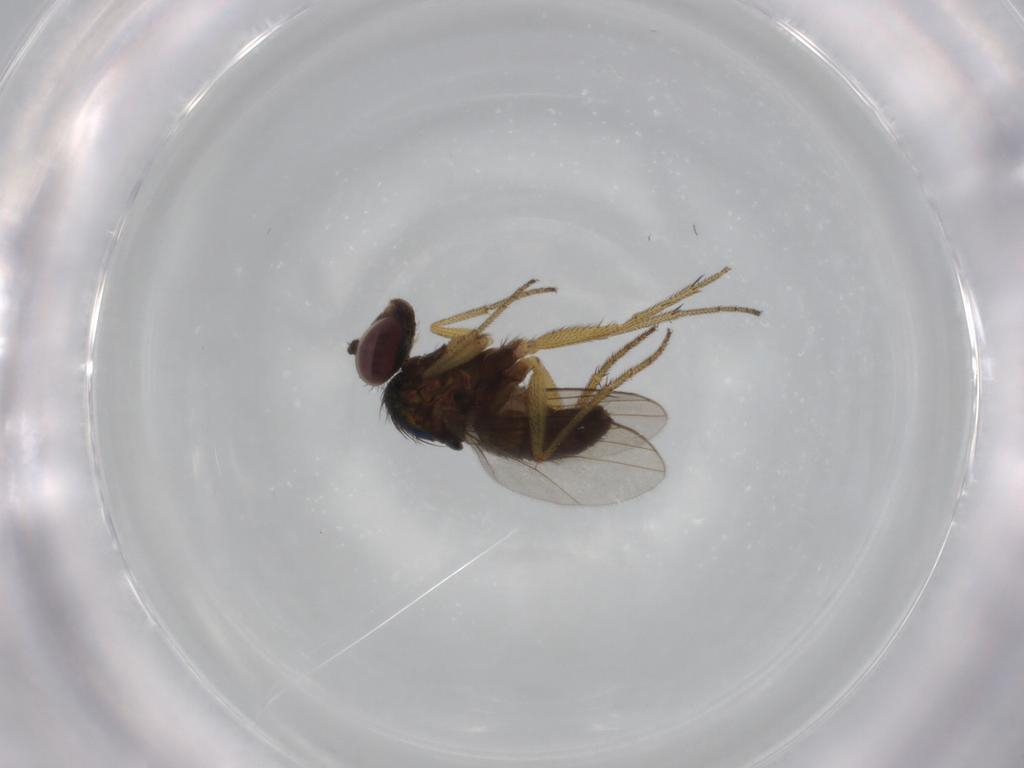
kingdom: Animalia
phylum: Arthropoda
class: Insecta
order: Diptera
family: Dolichopodidae
